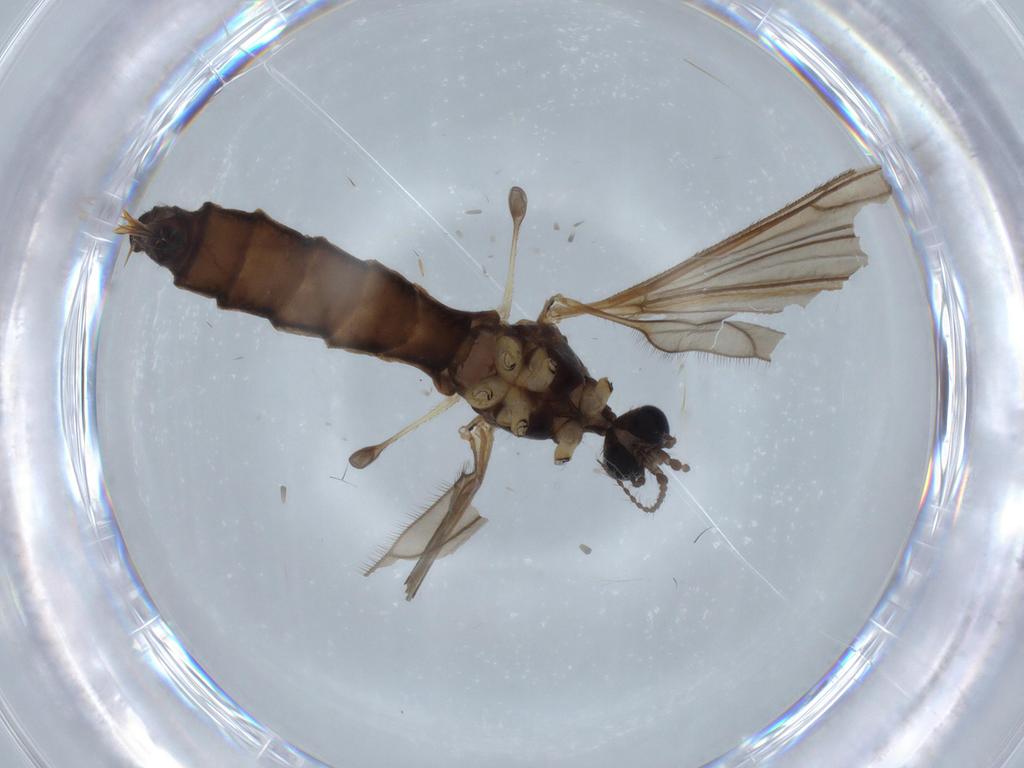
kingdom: Animalia
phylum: Arthropoda
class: Insecta
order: Diptera
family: Drosophilidae
